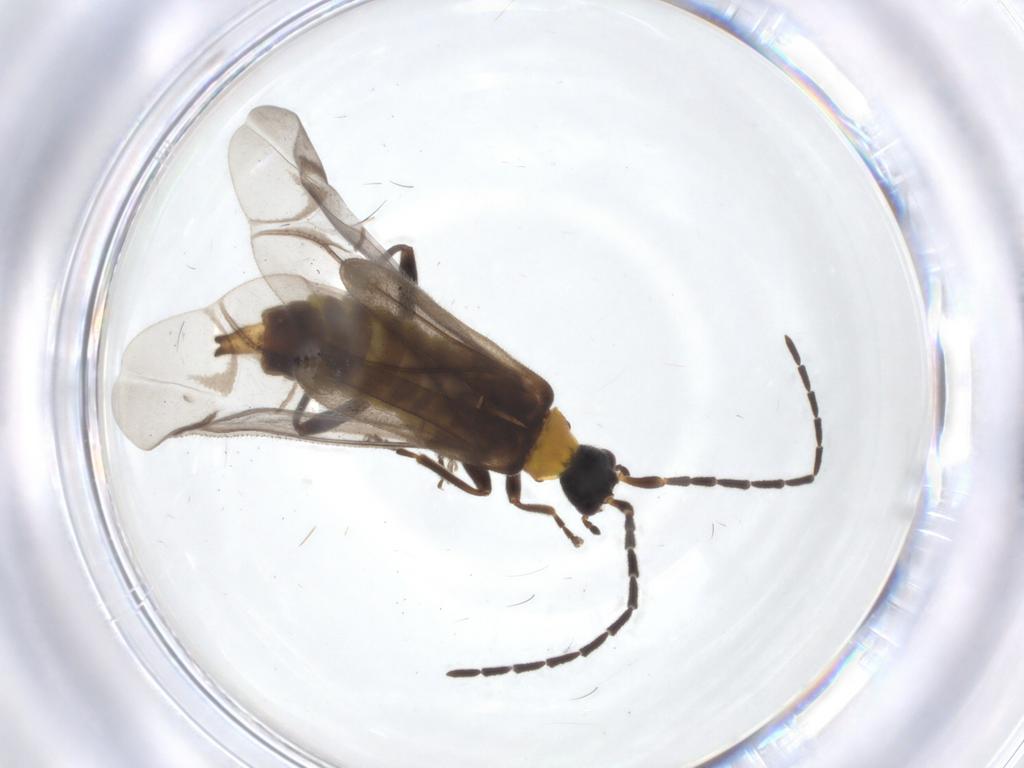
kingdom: Animalia
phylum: Arthropoda
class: Insecta
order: Coleoptera
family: Cantharidae
